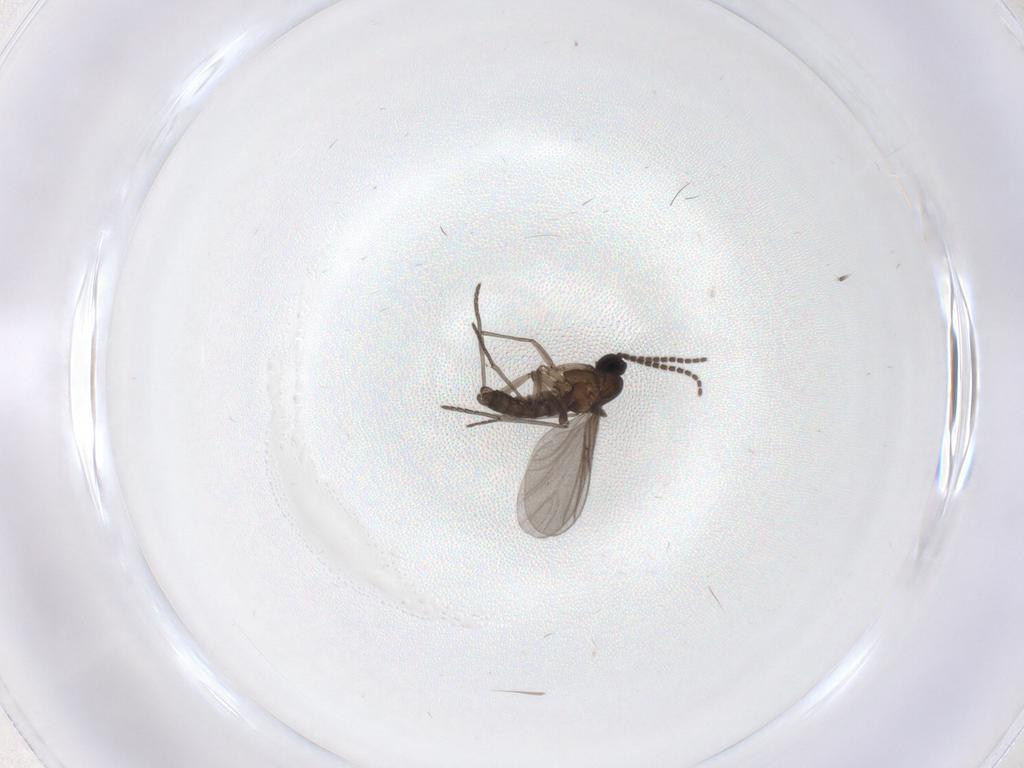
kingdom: Animalia
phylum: Arthropoda
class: Insecta
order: Diptera
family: Sciaridae
